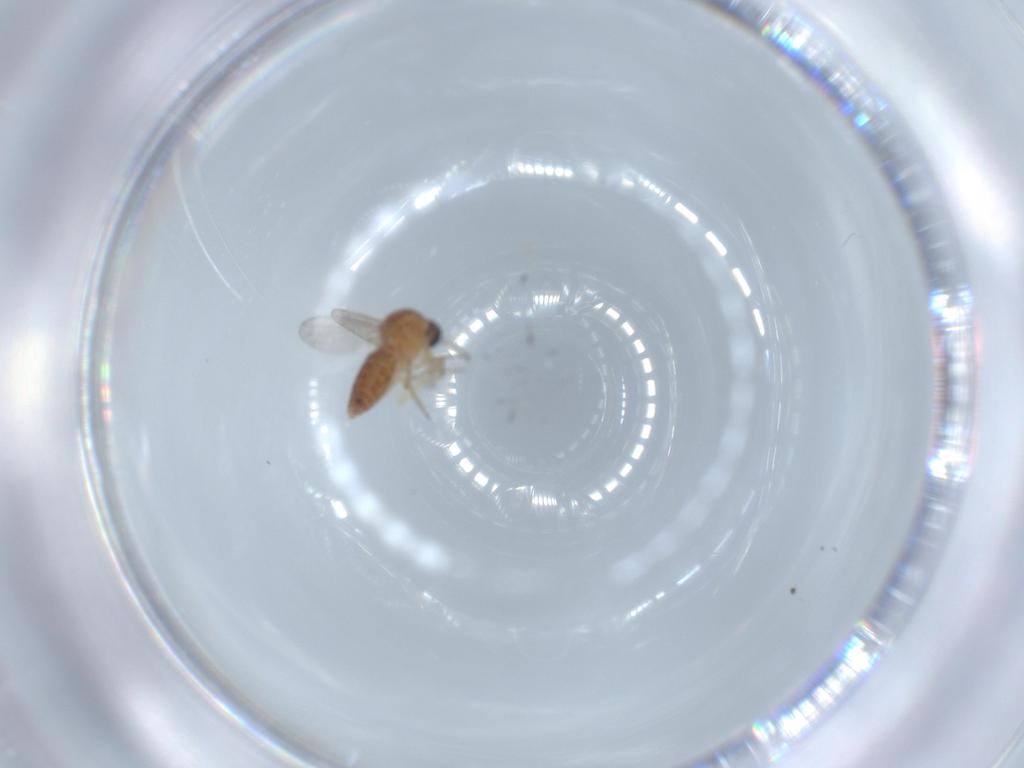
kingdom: Animalia
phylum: Arthropoda
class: Insecta
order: Diptera
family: Ceratopogonidae
